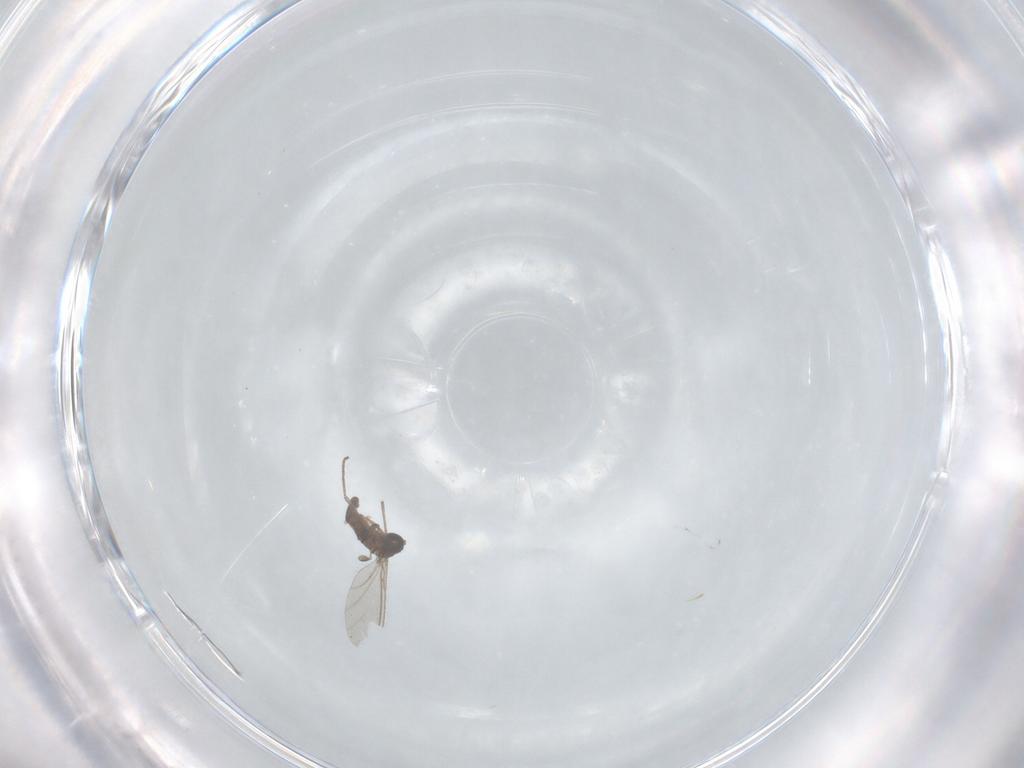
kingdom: Animalia
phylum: Arthropoda
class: Insecta
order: Diptera
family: Sciaridae
